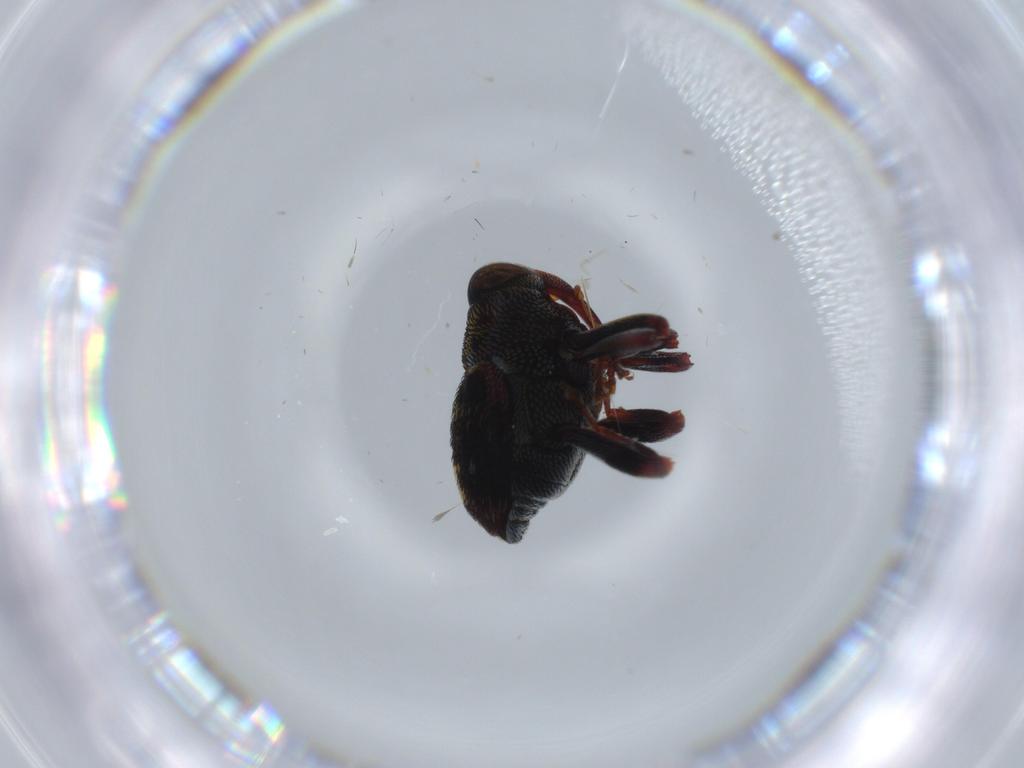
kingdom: Animalia
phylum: Arthropoda
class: Insecta
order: Coleoptera
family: Curculionidae
